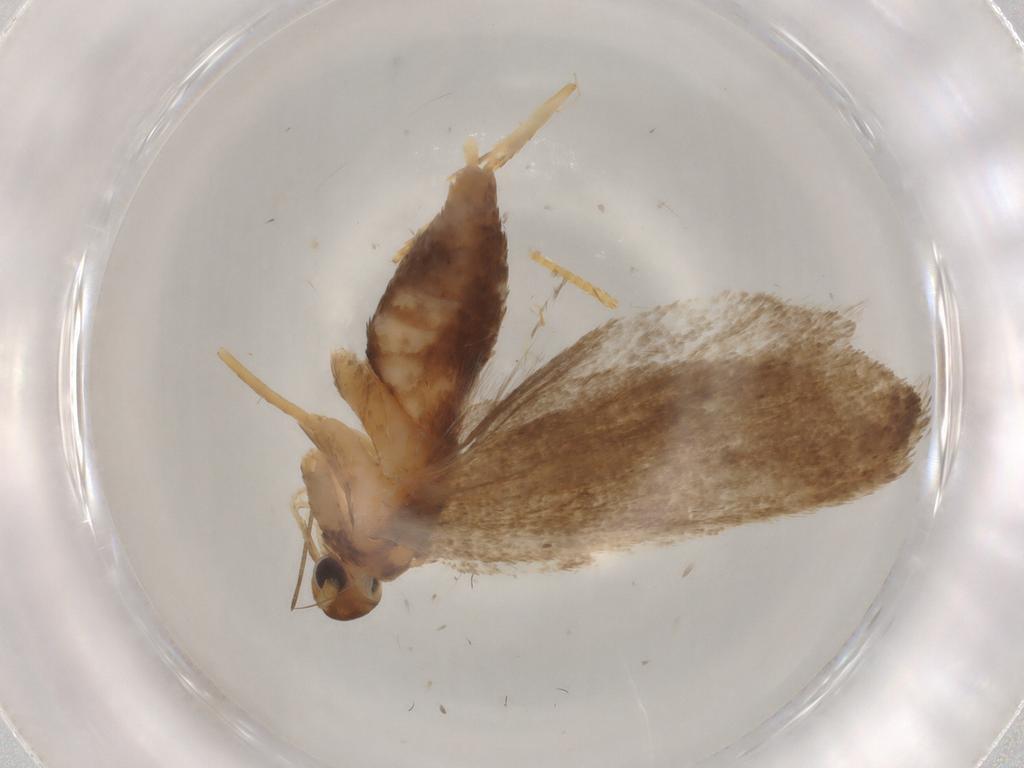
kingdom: Animalia
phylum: Arthropoda
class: Insecta
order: Lepidoptera
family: Lecithoceridae
